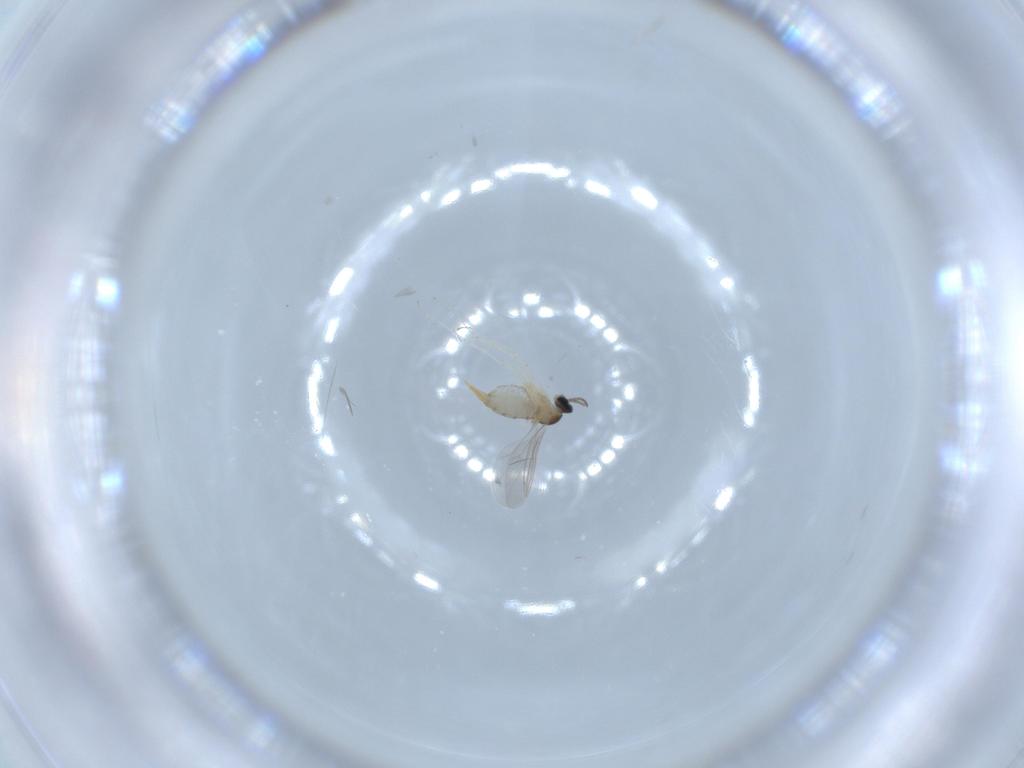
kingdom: Animalia
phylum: Arthropoda
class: Insecta
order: Diptera
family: Cecidomyiidae
